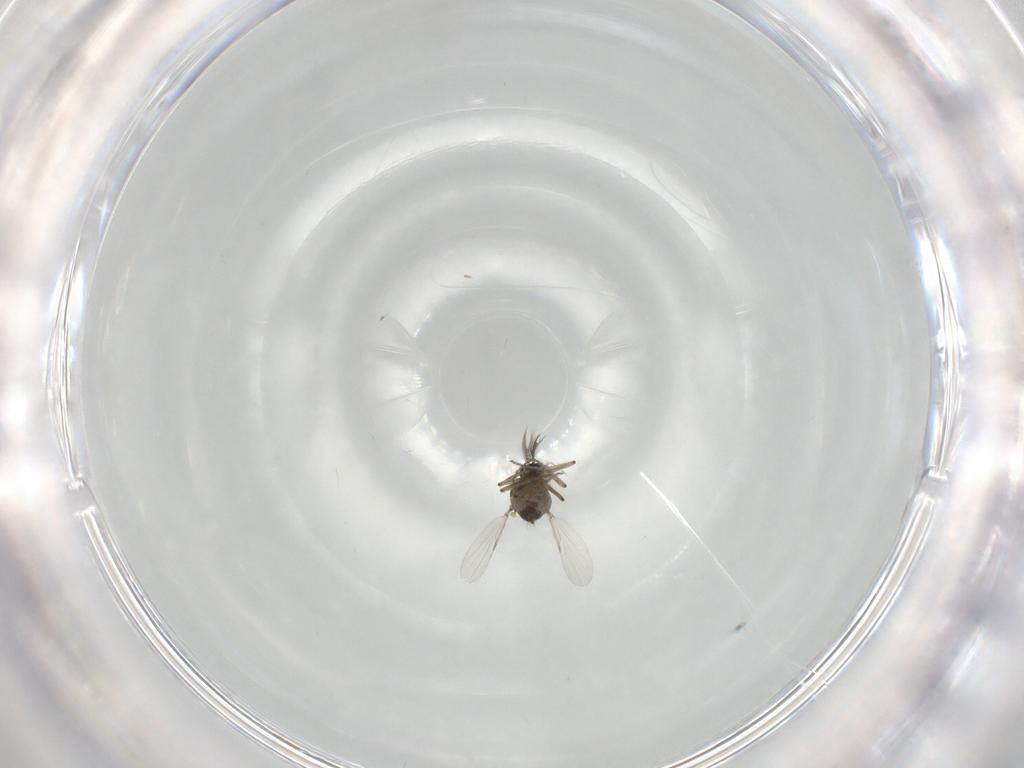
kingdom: Animalia
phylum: Arthropoda
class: Insecta
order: Diptera
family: Ceratopogonidae
